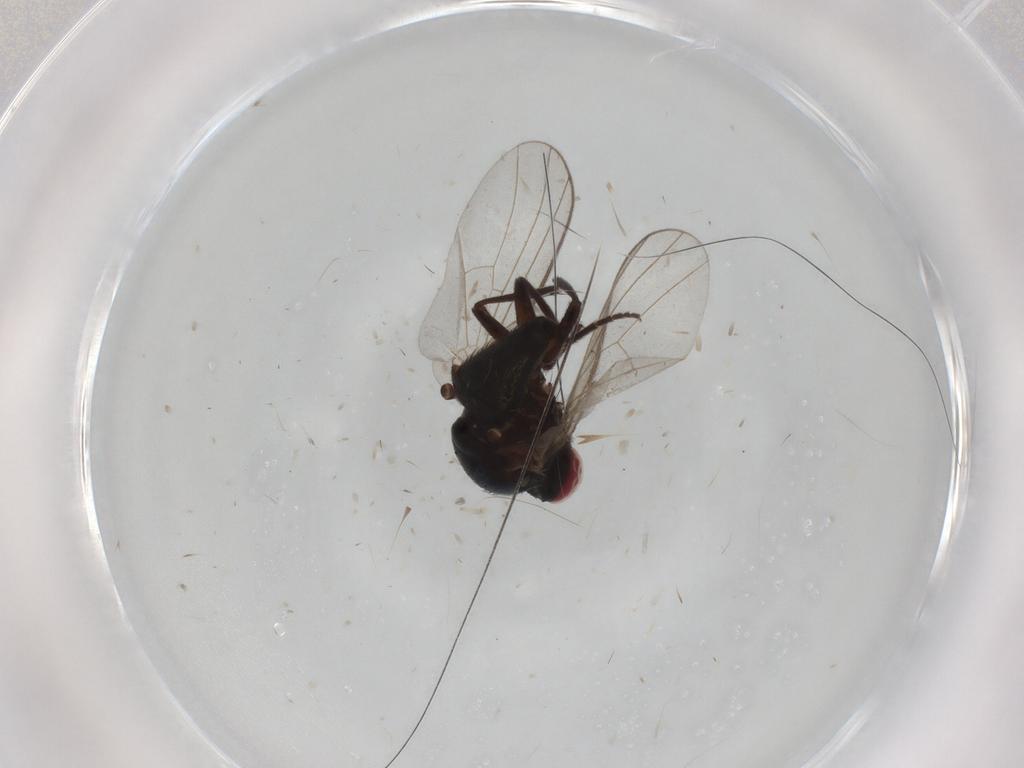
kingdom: Animalia
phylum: Arthropoda
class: Insecta
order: Diptera
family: Agromyzidae
